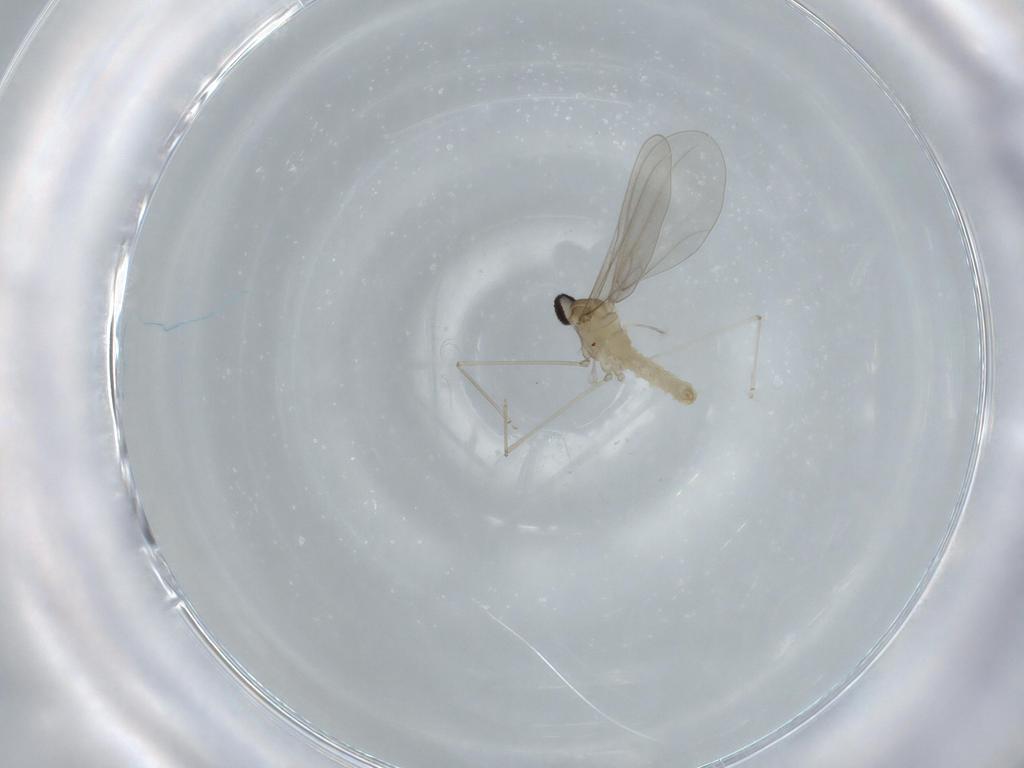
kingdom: Animalia
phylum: Arthropoda
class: Insecta
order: Diptera
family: Cecidomyiidae
